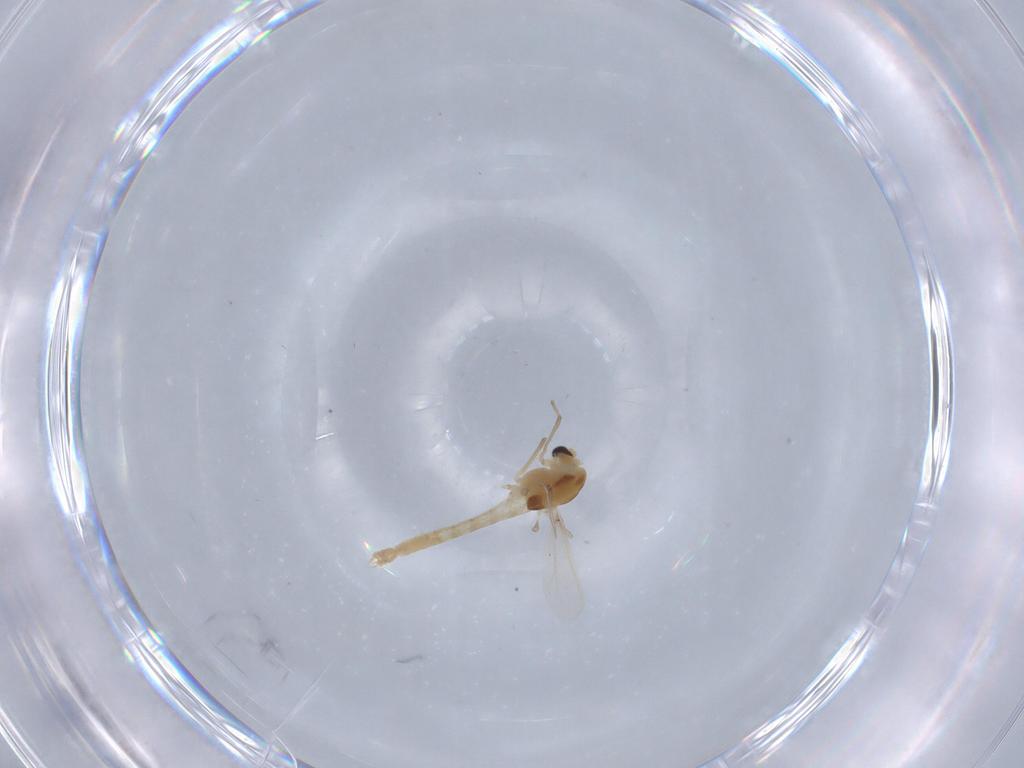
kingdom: Animalia
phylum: Arthropoda
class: Insecta
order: Diptera
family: Chironomidae
